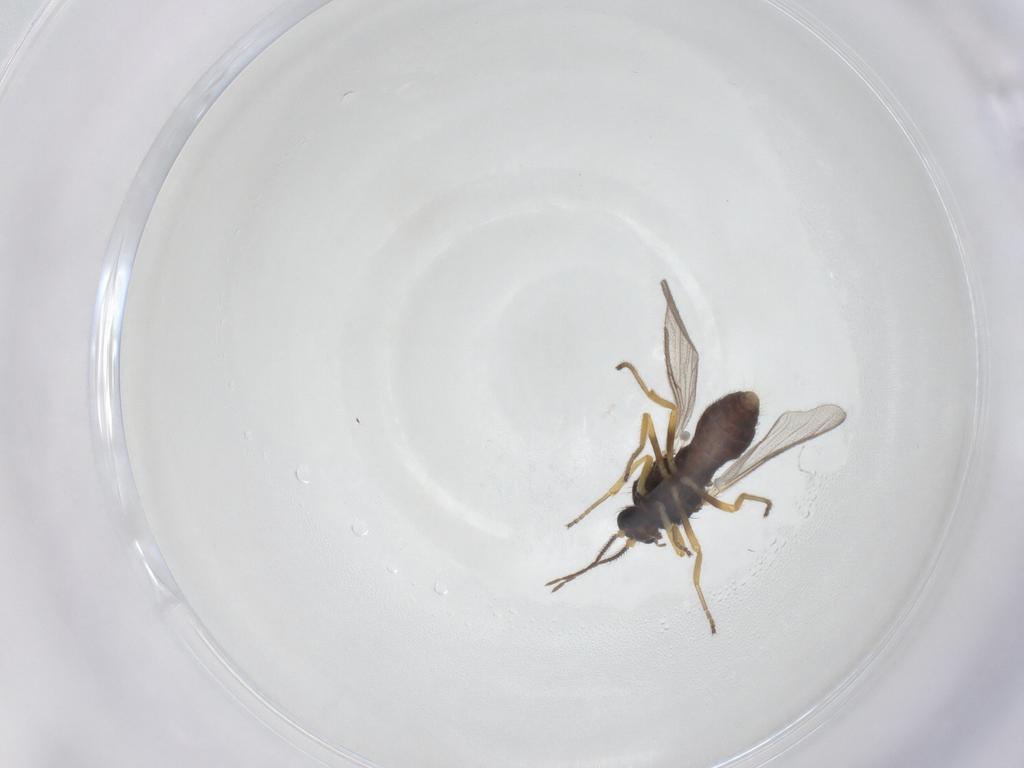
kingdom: Animalia
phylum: Arthropoda
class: Insecta
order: Diptera
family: Ceratopogonidae
